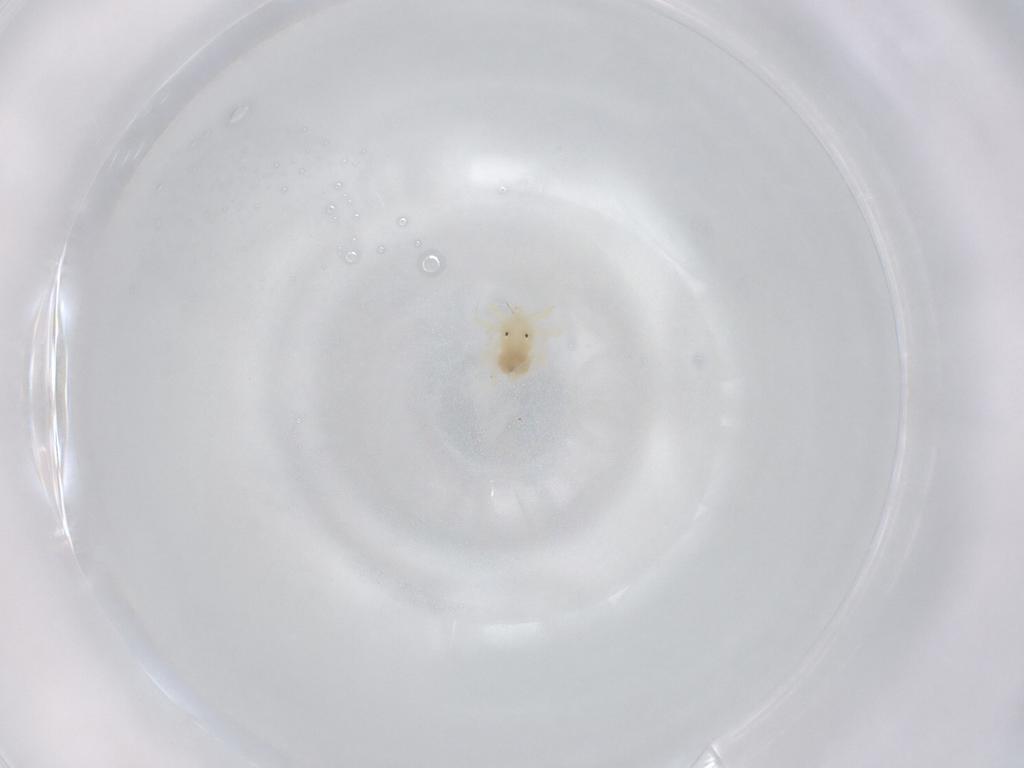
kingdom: Animalia
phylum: Arthropoda
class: Arachnida
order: Trombidiformes
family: Anystidae
